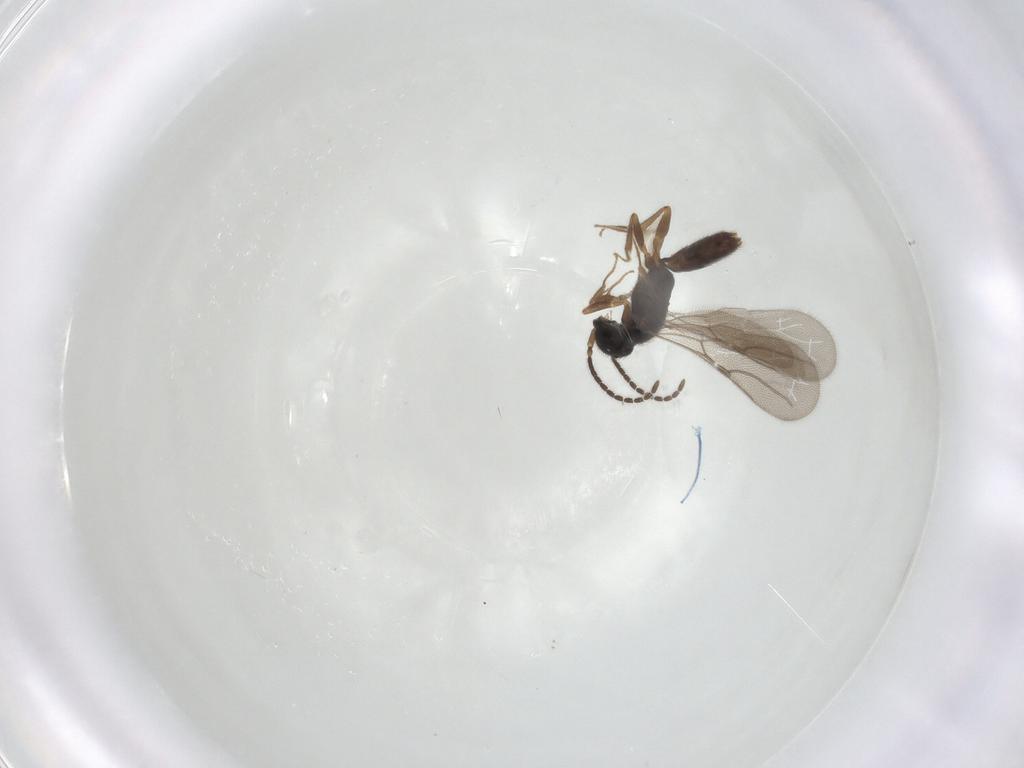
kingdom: Animalia
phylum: Arthropoda
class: Insecta
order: Hymenoptera
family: Bethylidae
